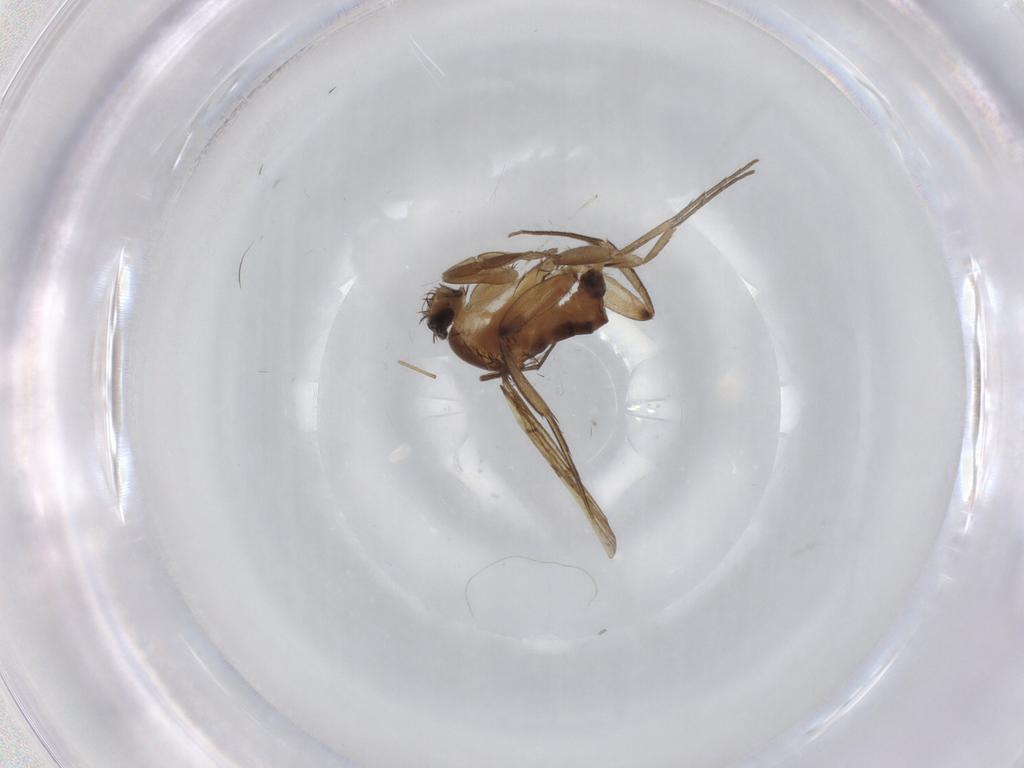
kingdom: Animalia
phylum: Arthropoda
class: Insecta
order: Diptera
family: Phoridae
